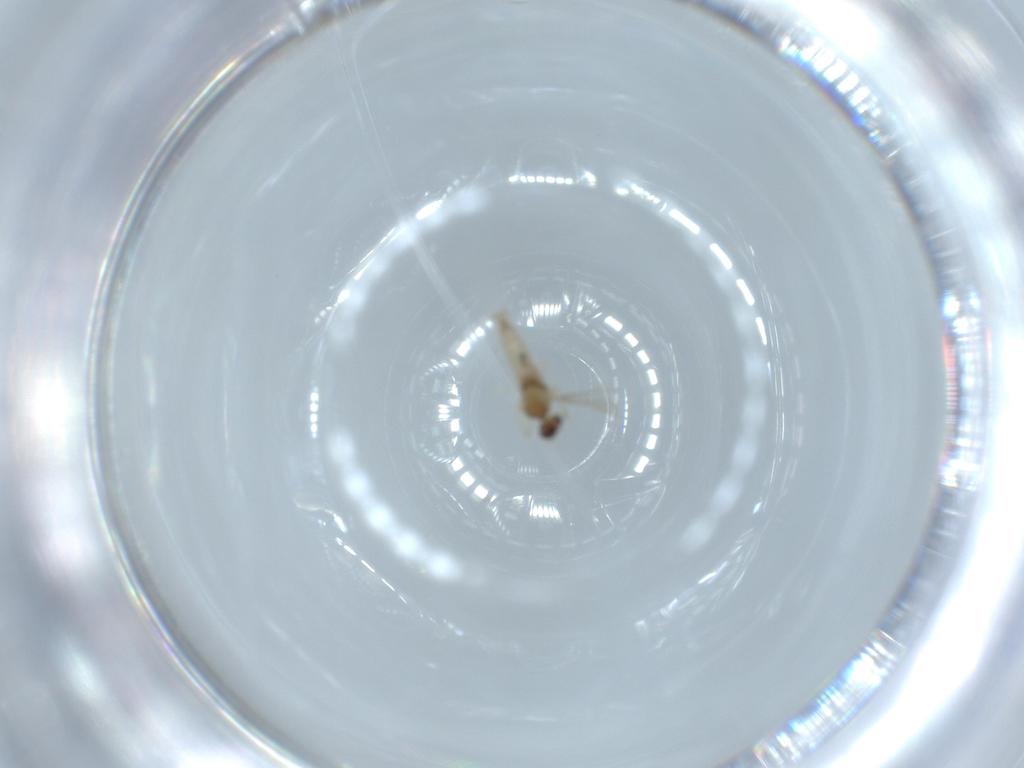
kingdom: Animalia
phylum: Arthropoda
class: Insecta
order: Diptera
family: Cecidomyiidae
